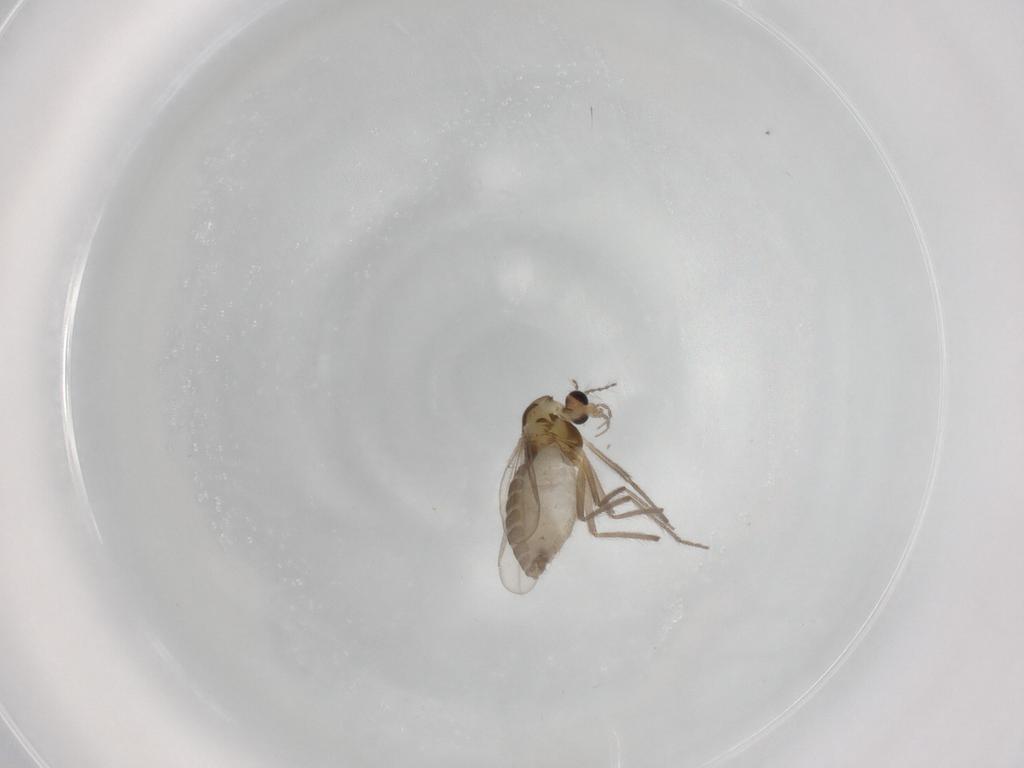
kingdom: Animalia
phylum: Arthropoda
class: Insecta
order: Diptera
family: Chironomidae
